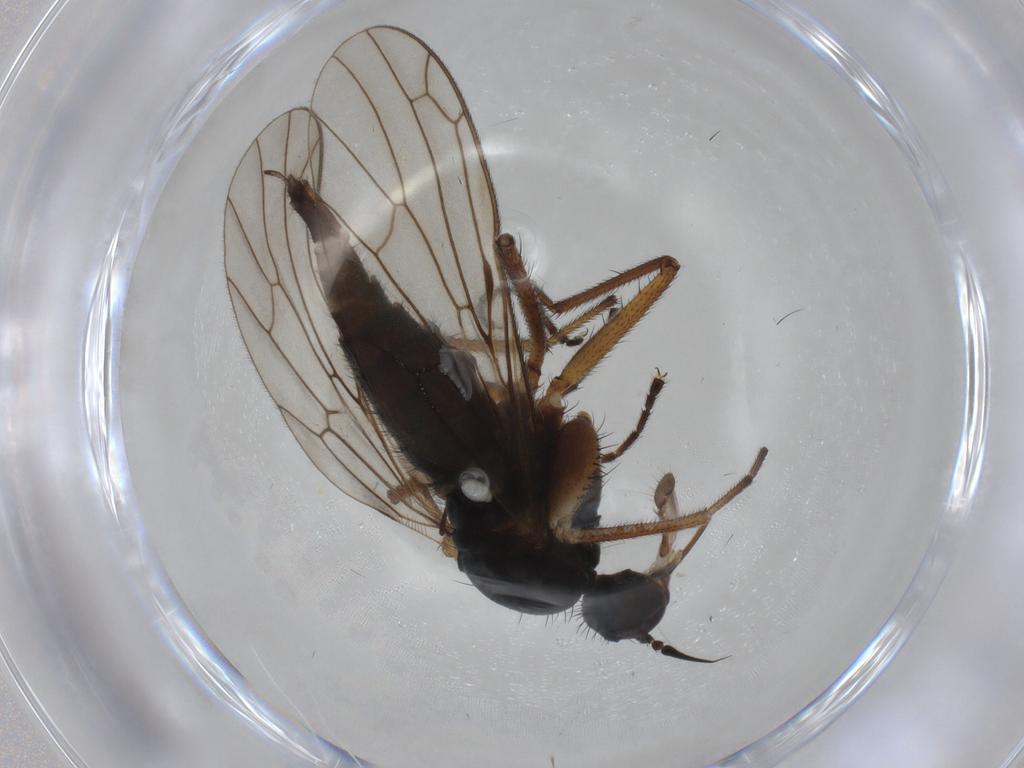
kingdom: Animalia
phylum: Arthropoda
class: Insecta
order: Diptera
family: Empididae
